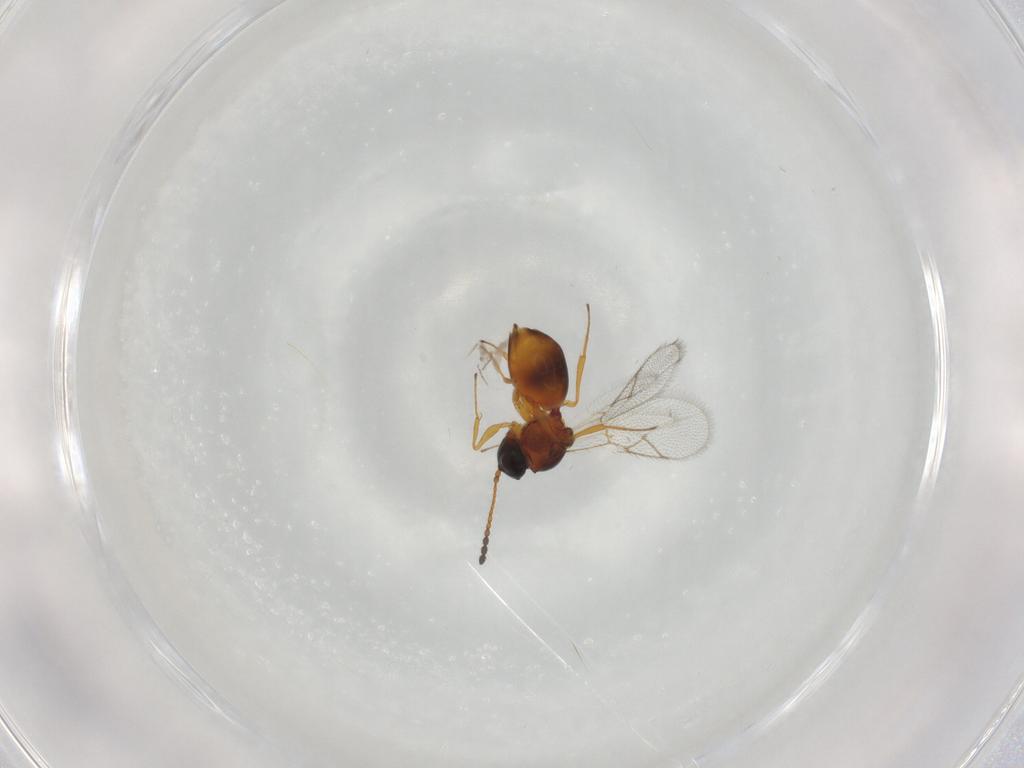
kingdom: Animalia
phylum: Arthropoda
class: Insecta
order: Hymenoptera
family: Figitidae
